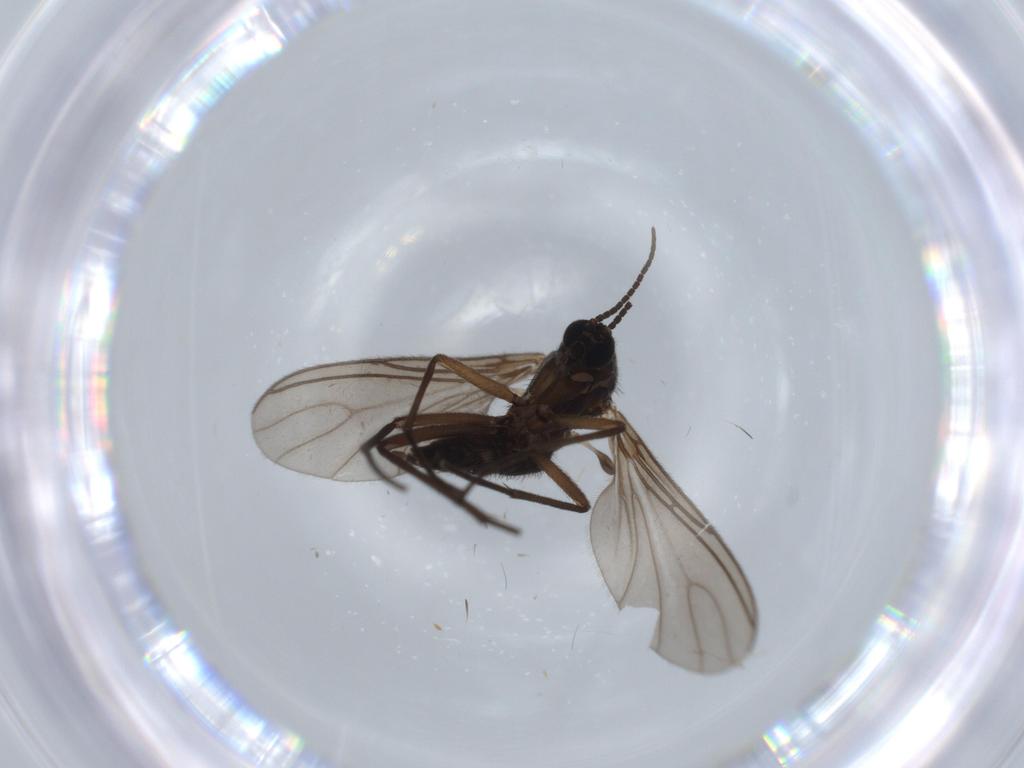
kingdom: Animalia
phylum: Arthropoda
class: Insecta
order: Diptera
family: Sciaridae
